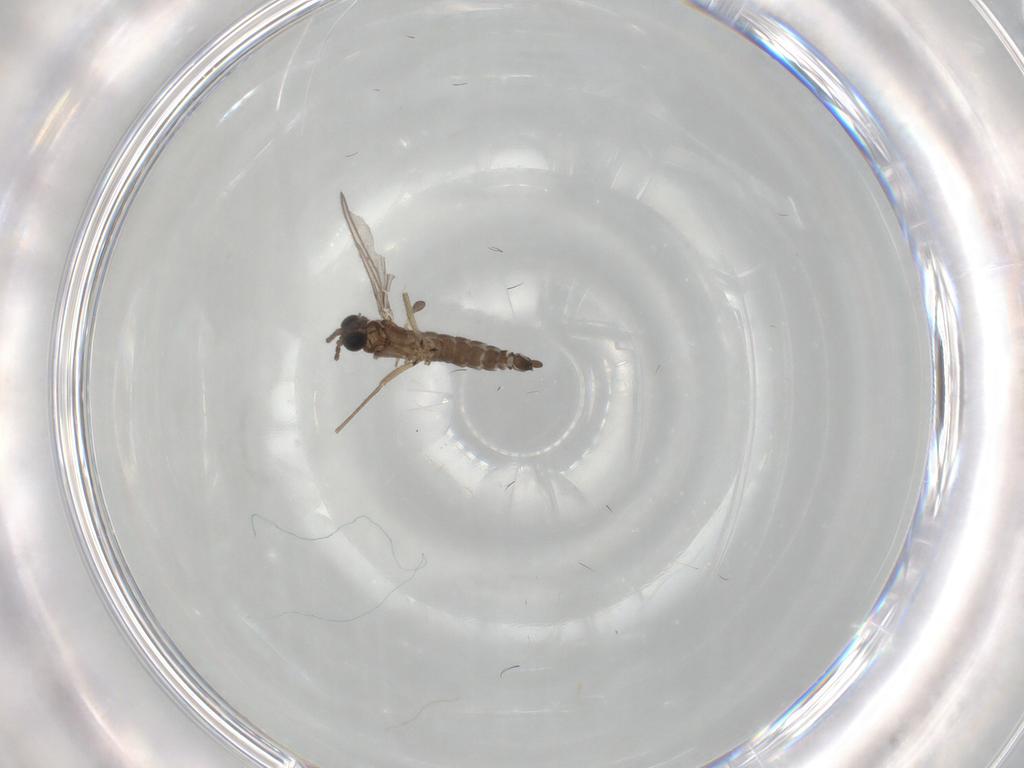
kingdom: Animalia
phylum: Arthropoda
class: Insecta
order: Diptera
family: Sciaridae
